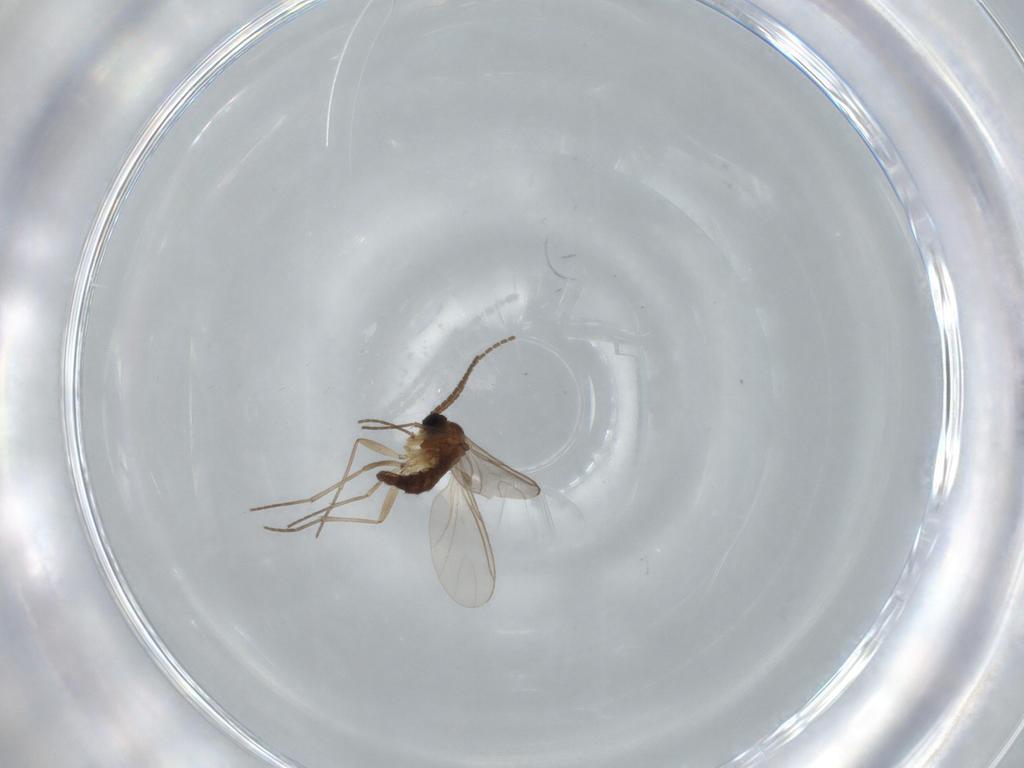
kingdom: Animalia
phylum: Arthropoda
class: Insecta
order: Diptera
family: Sciaridae
